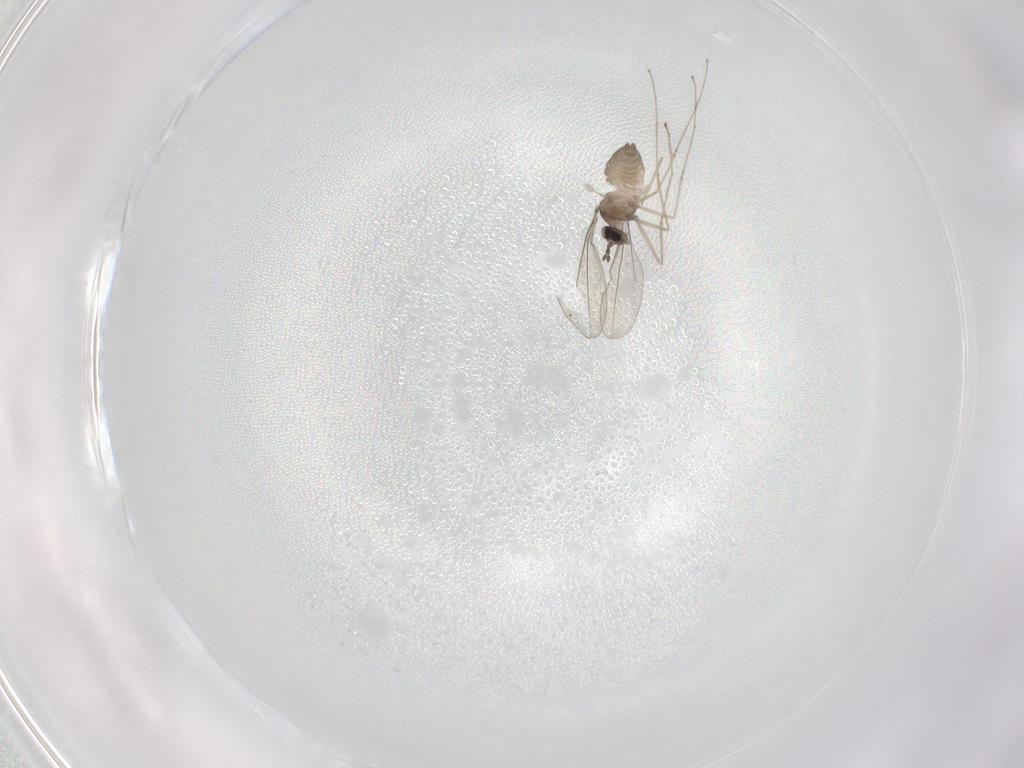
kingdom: Animalia
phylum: Arthropoda
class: Insecta
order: Diptera
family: Cecidomyiidae
